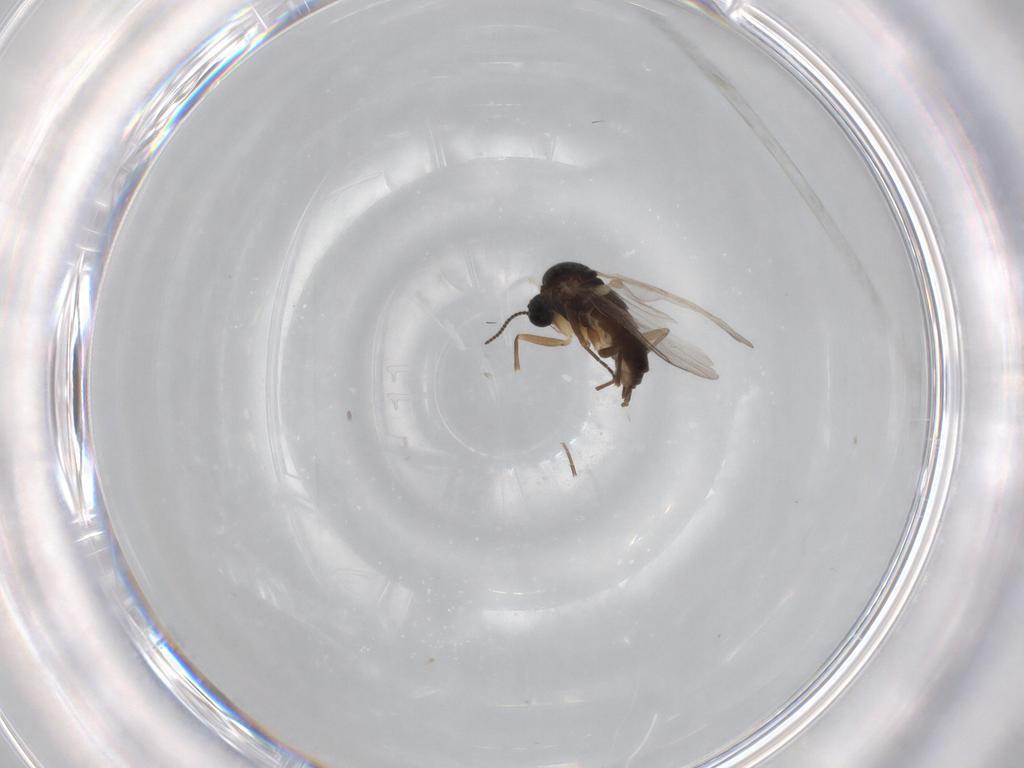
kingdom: Animalia
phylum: Arthropoda
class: Insecta
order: Diptera
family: Sciaridae
